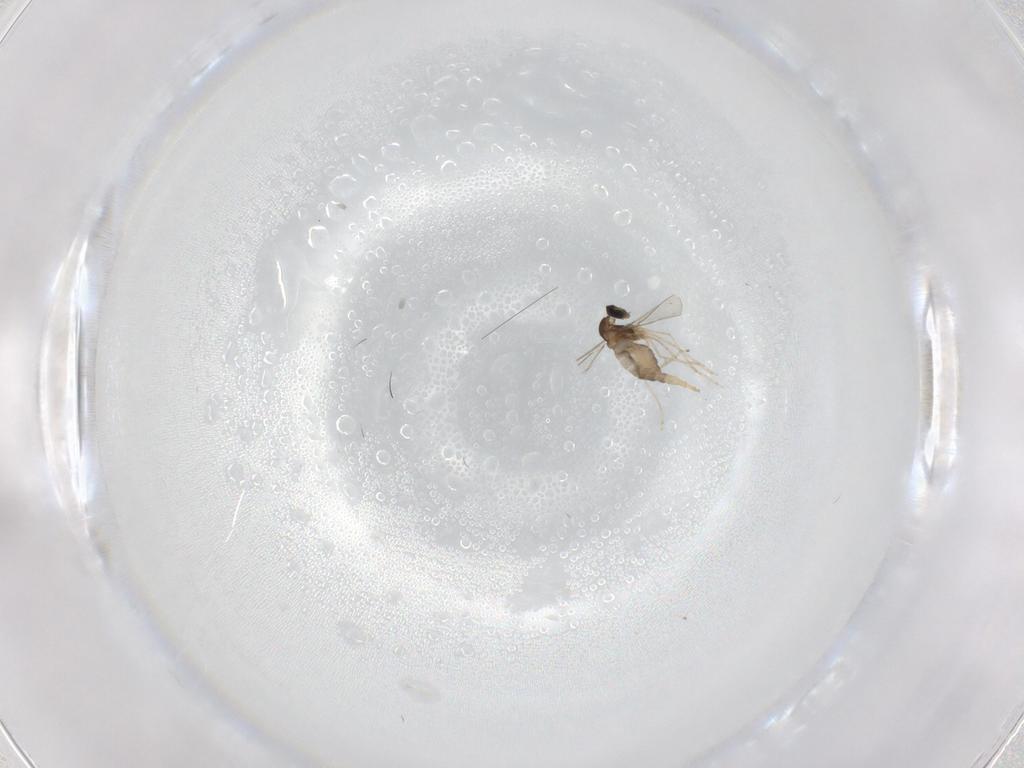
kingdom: Animalia
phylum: Arthropoda
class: Insecta
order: Diptera
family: Cecidomyiidae
